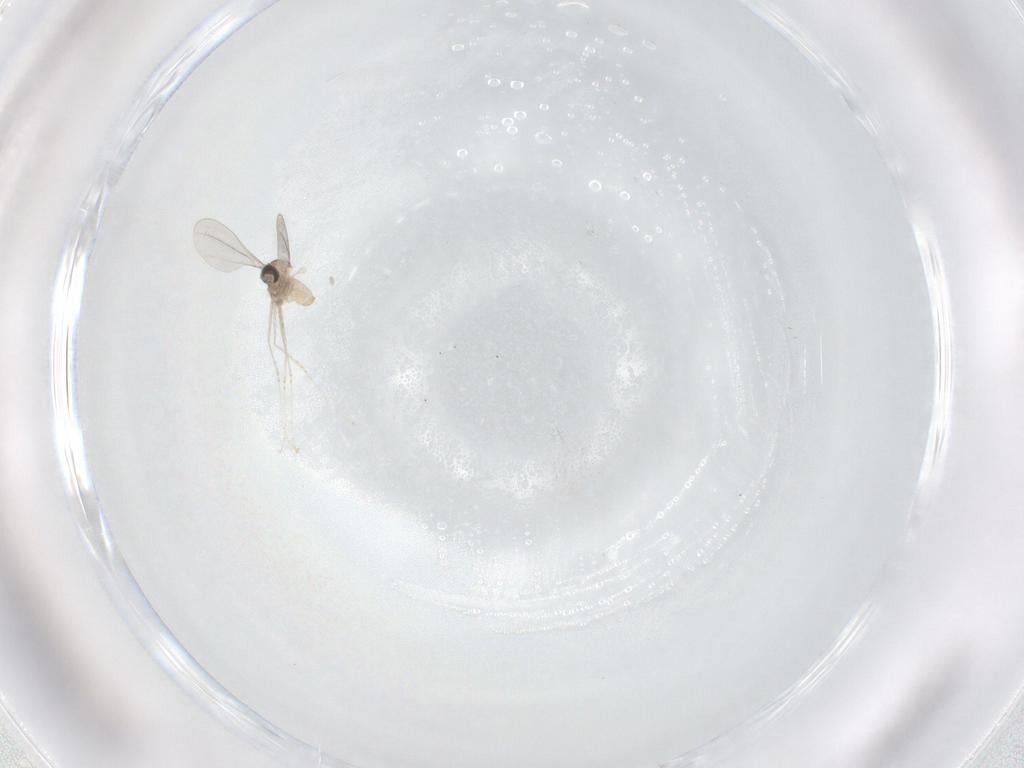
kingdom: Animalia
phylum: Arthropoda
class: Insecta
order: Diptera
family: Cecidomyiidae
